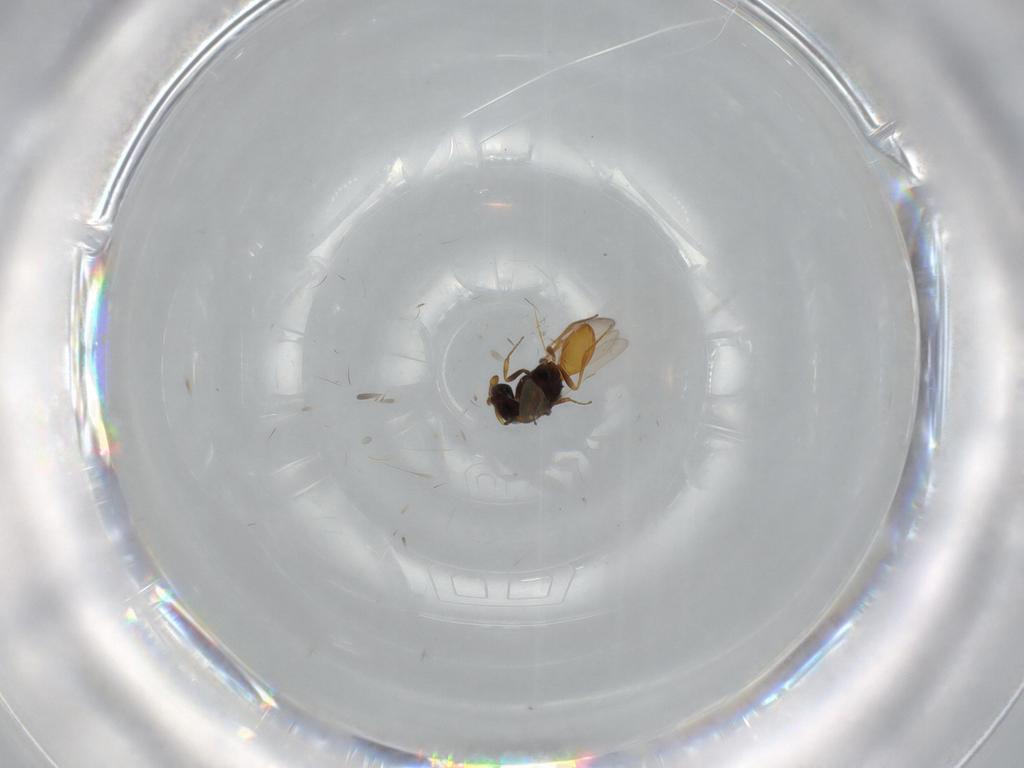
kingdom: Animalia
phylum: Arthropoda
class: Insecta
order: Hymenoptera
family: Scelionidae
